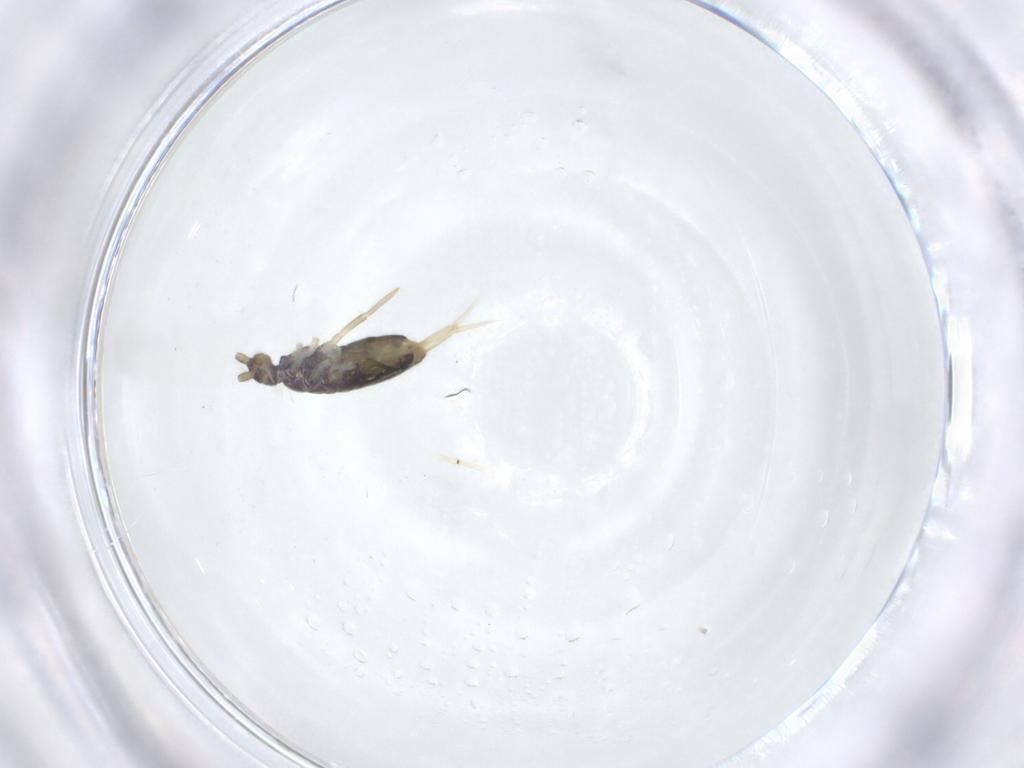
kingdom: Animalia
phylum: Arthropoda
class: Collembola
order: Entomobryomorpha
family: Entomobryidae
